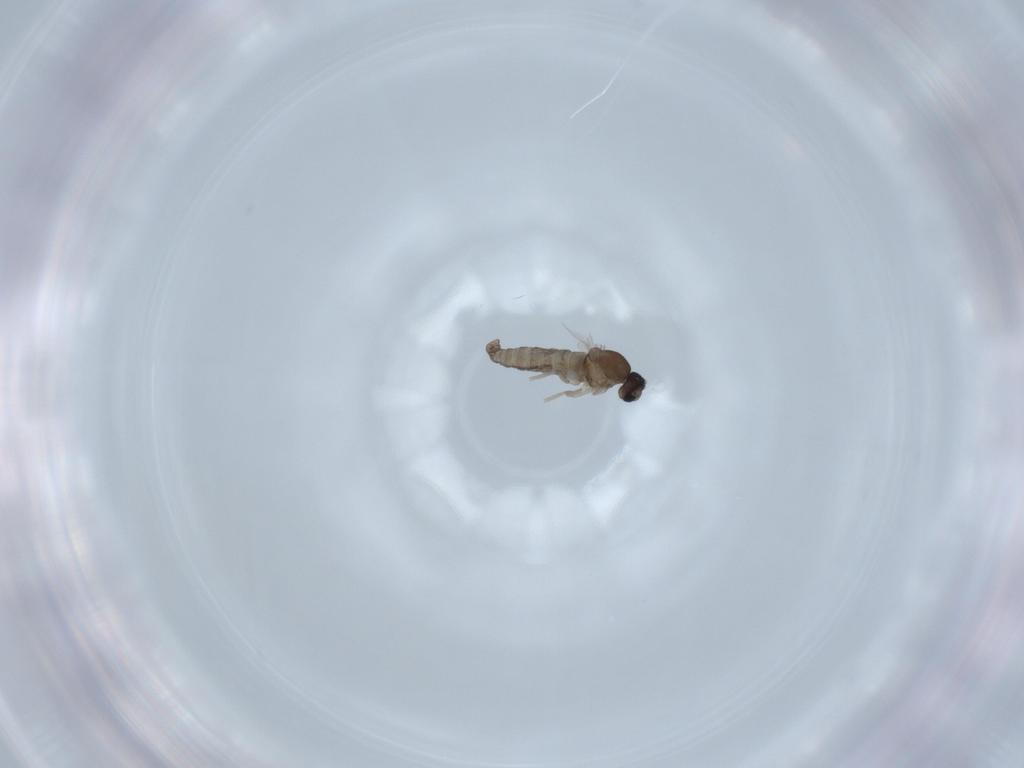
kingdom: Animalia
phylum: Arthropoda
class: Insecta
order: Diptera
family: Cecidomyiidae
